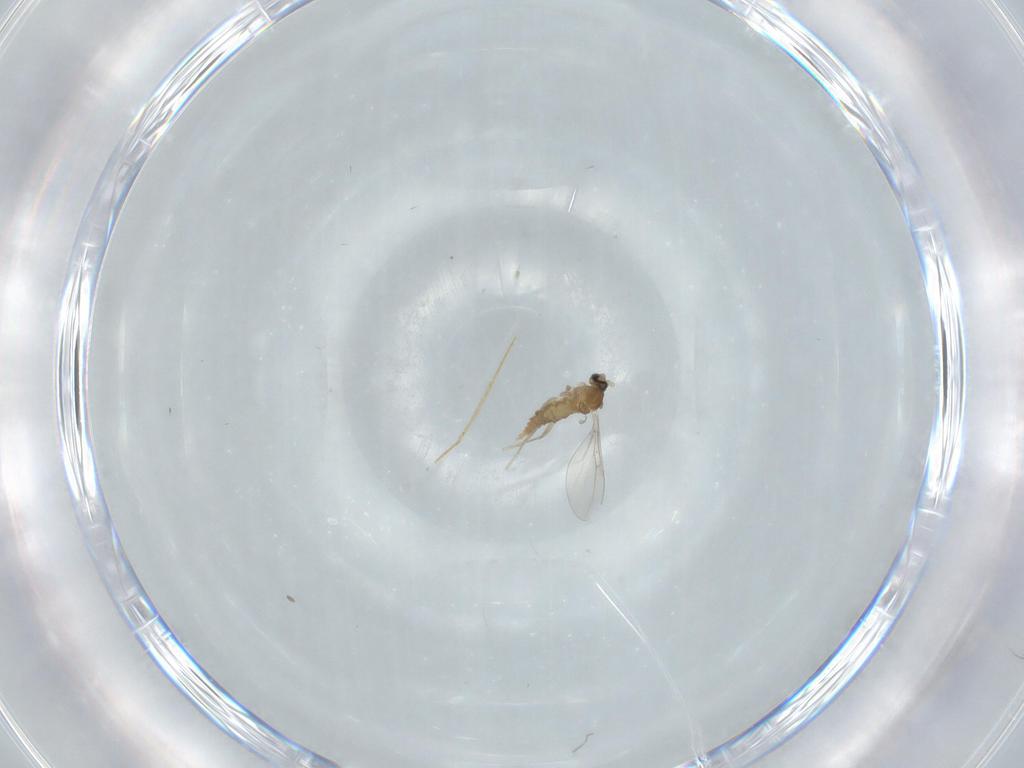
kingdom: Animalia
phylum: Arthropoda
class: Insecta
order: Diptera
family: Cecidomyiidae
